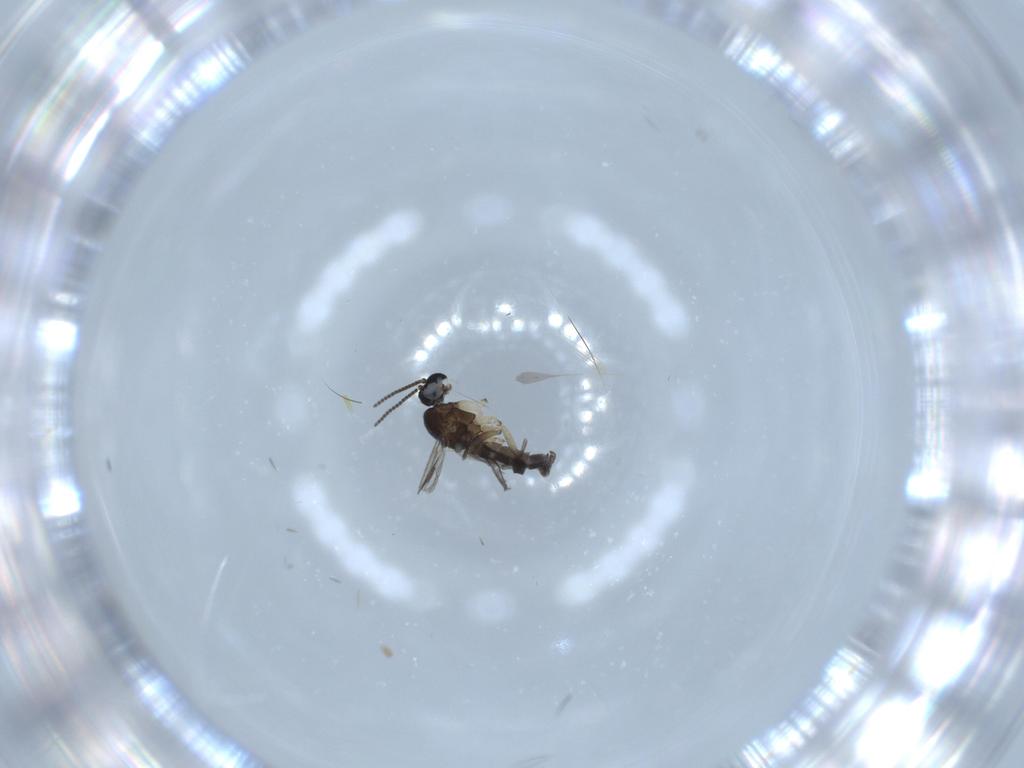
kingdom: Animalia
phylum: Arthropoda
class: Insecta
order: Diptera
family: Sciaridae
